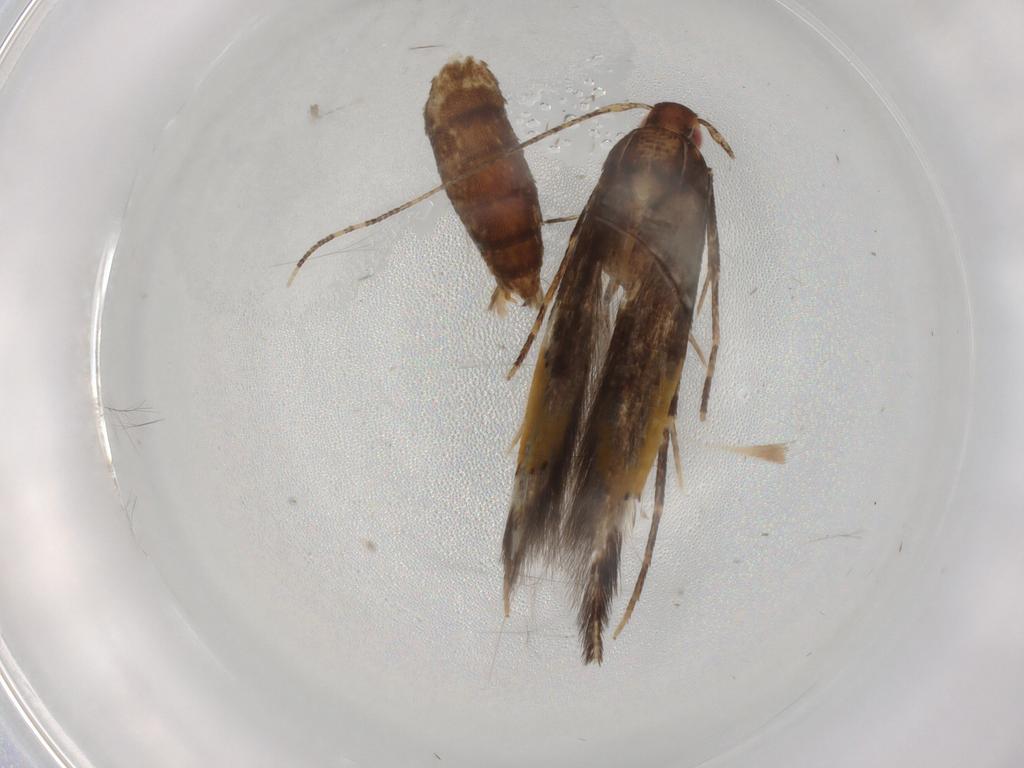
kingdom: Animalia
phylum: Arthropoda
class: Insecta
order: Lepidoptera
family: Cosmopterigidae
